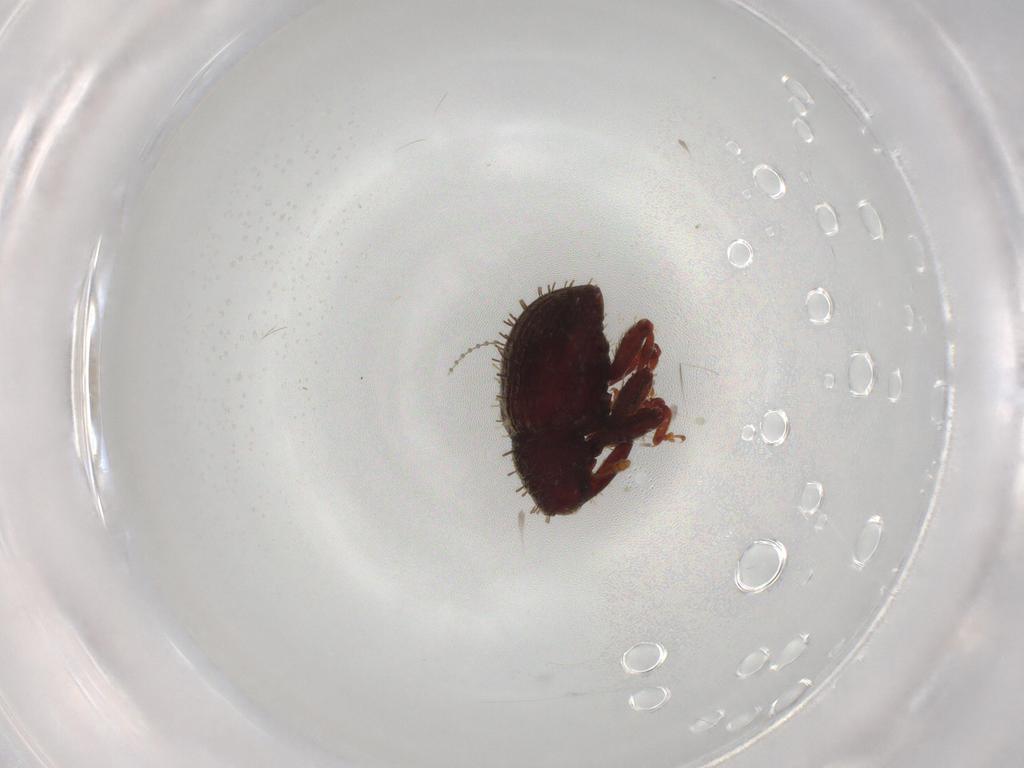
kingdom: Animalia
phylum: Arthropoda
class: Insecta
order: Coleoptera
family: Curculionidae
